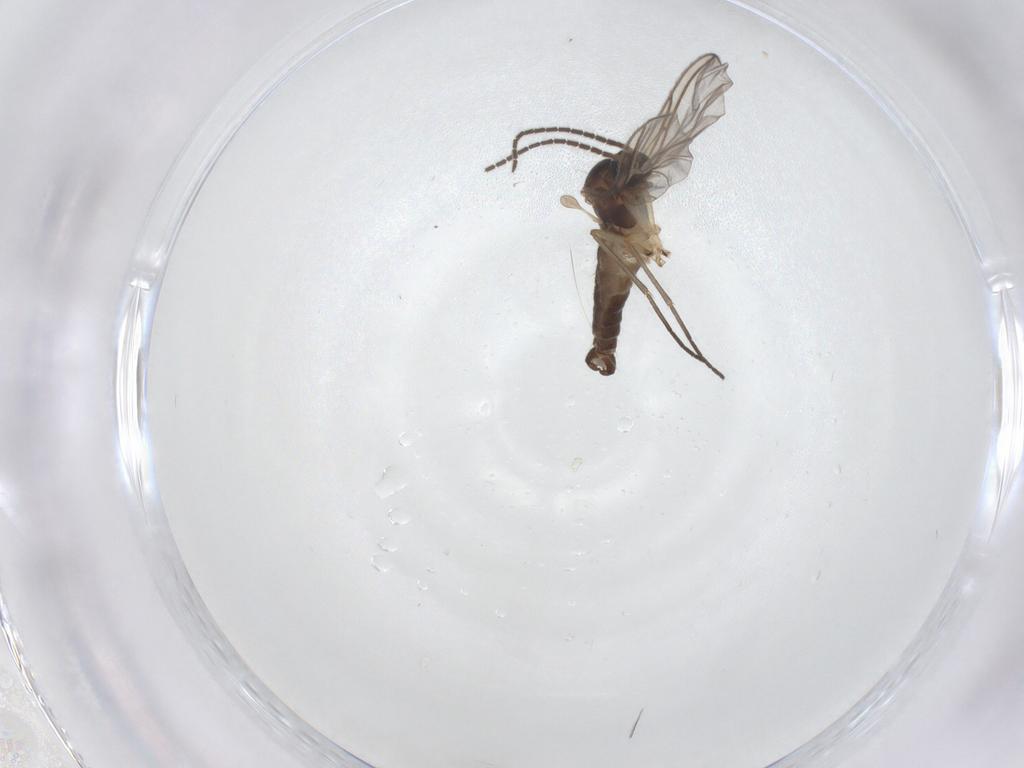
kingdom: Animalia
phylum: Arthropoda
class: Insecta
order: Diptera
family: Sciaridae
